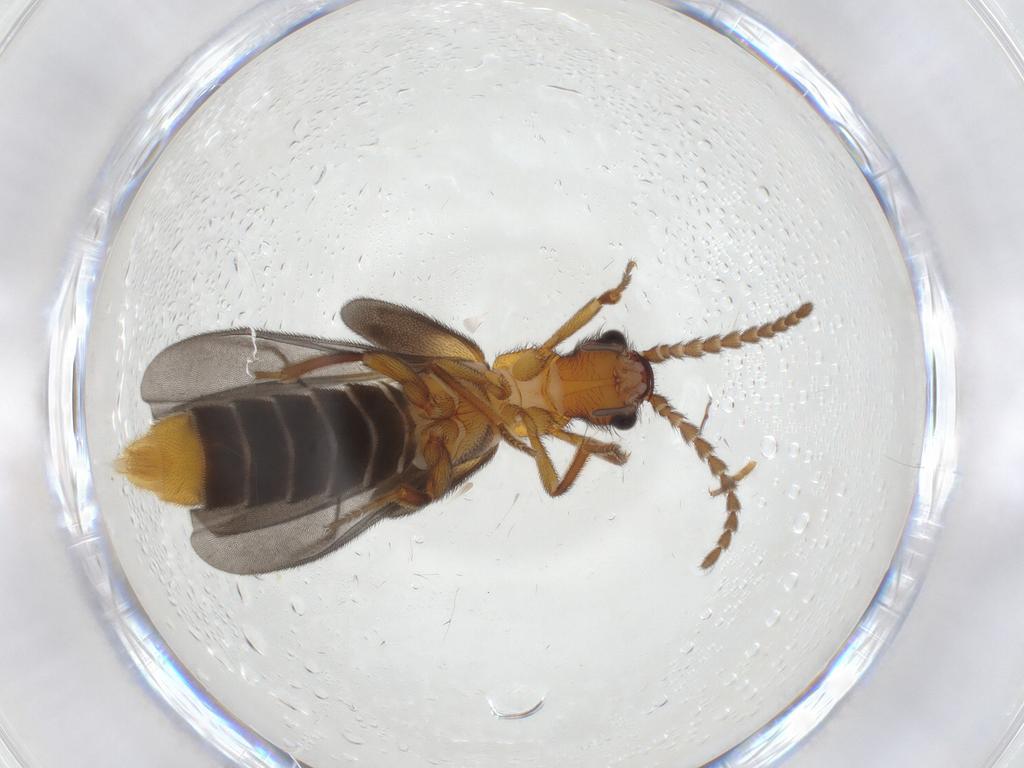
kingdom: Animalia
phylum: Arthropoda
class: Insecta
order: Coleoptera
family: Omethidae
